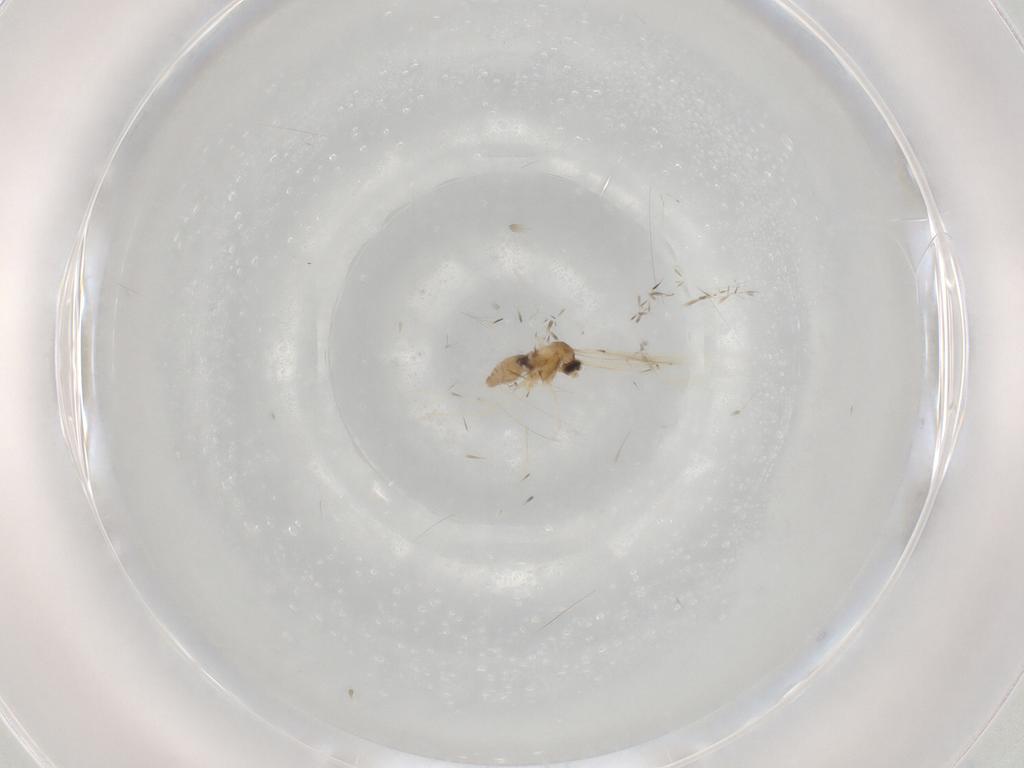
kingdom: Animalia
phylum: Arthropoda
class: Insecta
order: Diptera
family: Cecidomyiidae
